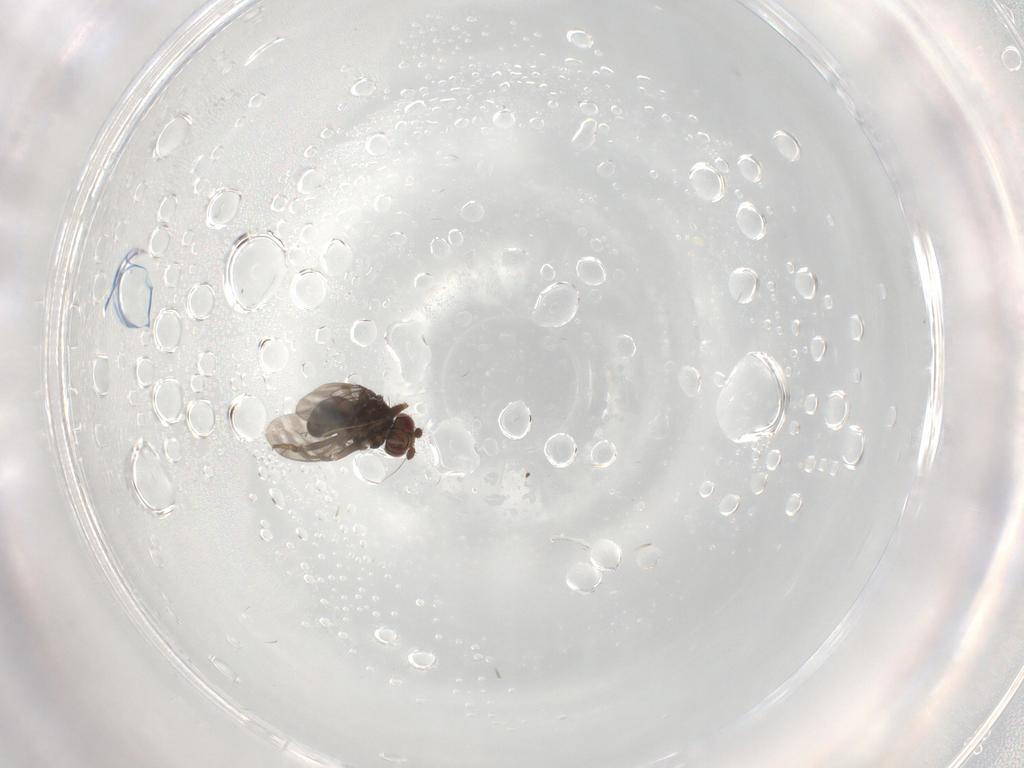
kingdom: Animalia
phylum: Arthropoda
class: Insecta
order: Diptera
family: Sphaeroceridae
